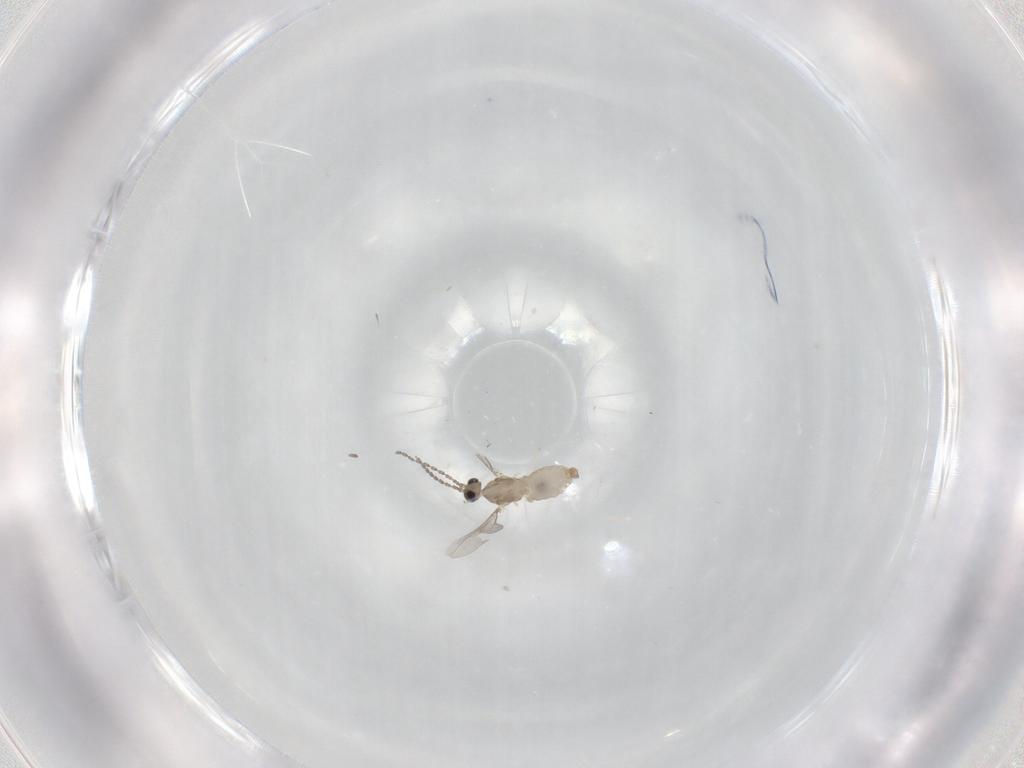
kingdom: Animalia
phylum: Arthropoda
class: Insecta
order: Diptera
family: Cecidomyiidae
